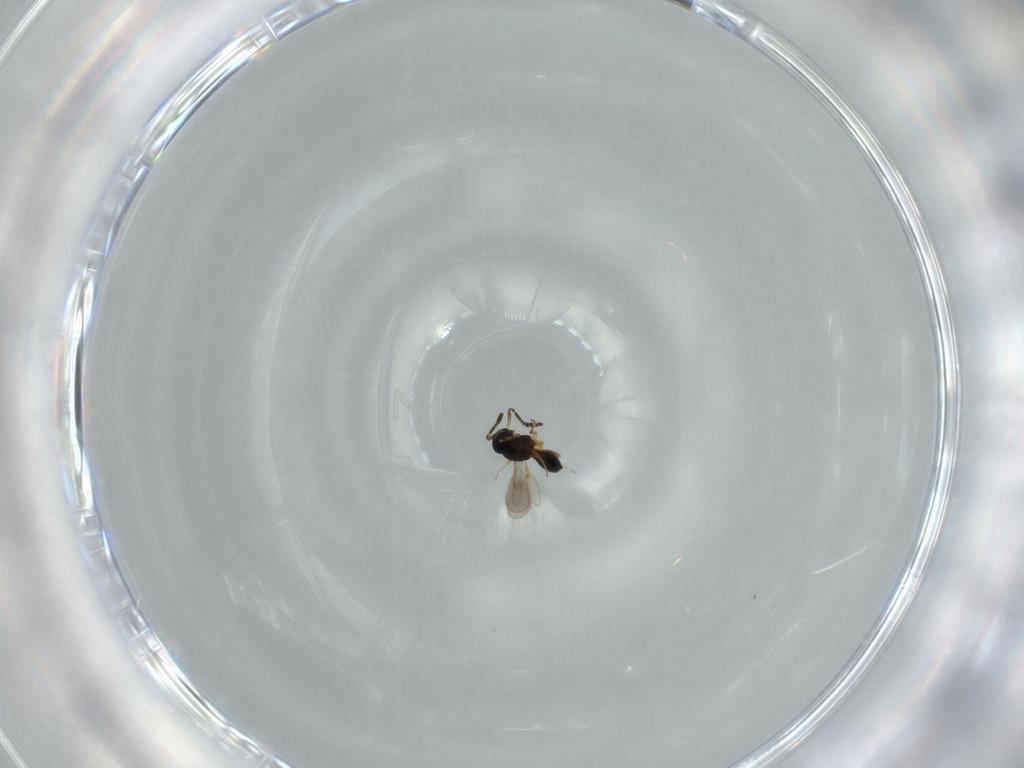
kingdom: Animalia
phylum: Arthropoda
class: Insecta
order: Hymenoptera
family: Scelionidae
